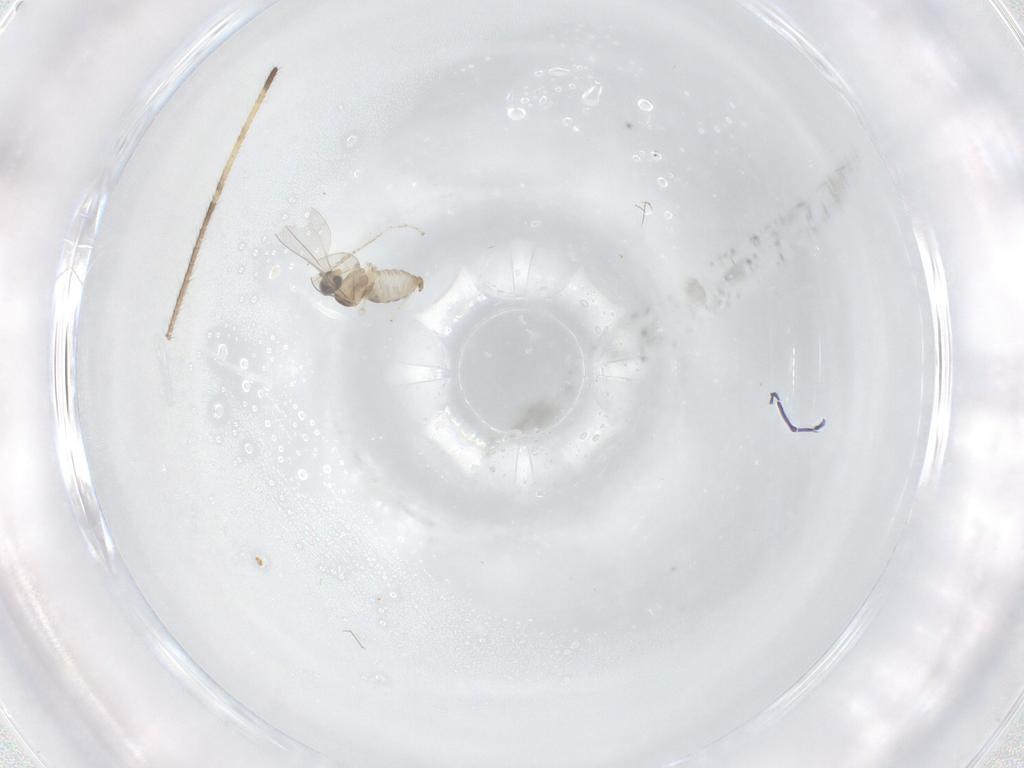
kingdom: Animalia
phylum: Arthropoda
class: Insecta
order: Diptera
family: Cecidomyiidae
